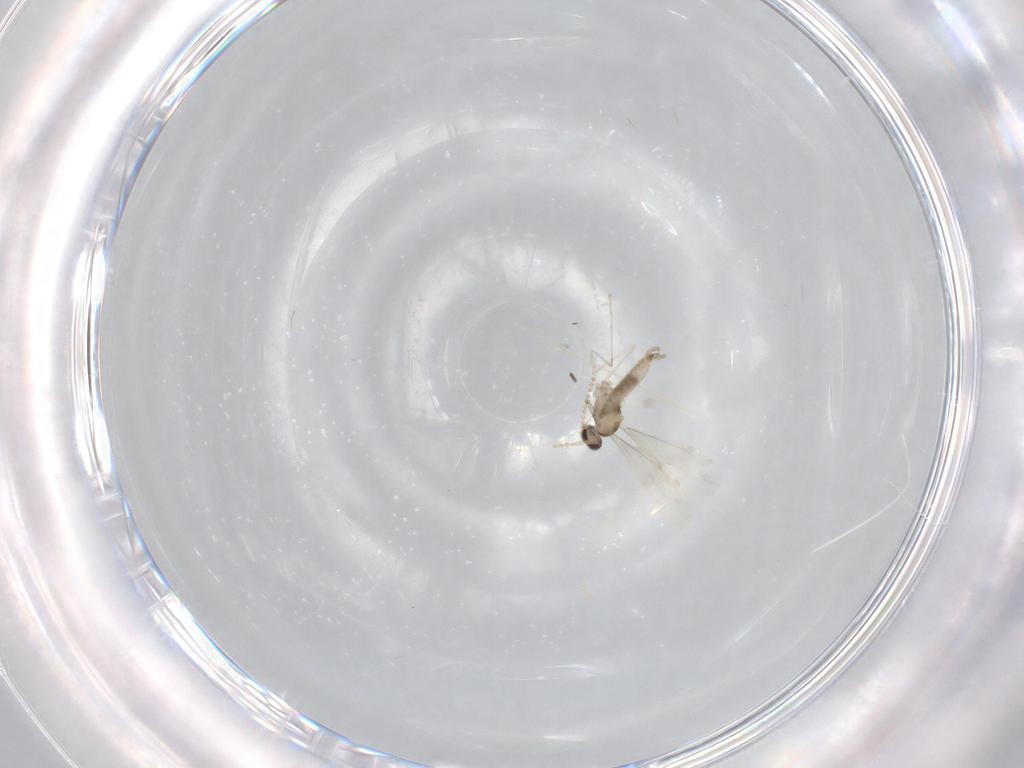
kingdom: Animalia
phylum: Arthropoda
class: Insecta
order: Diptera
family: Cecidomyiidae
